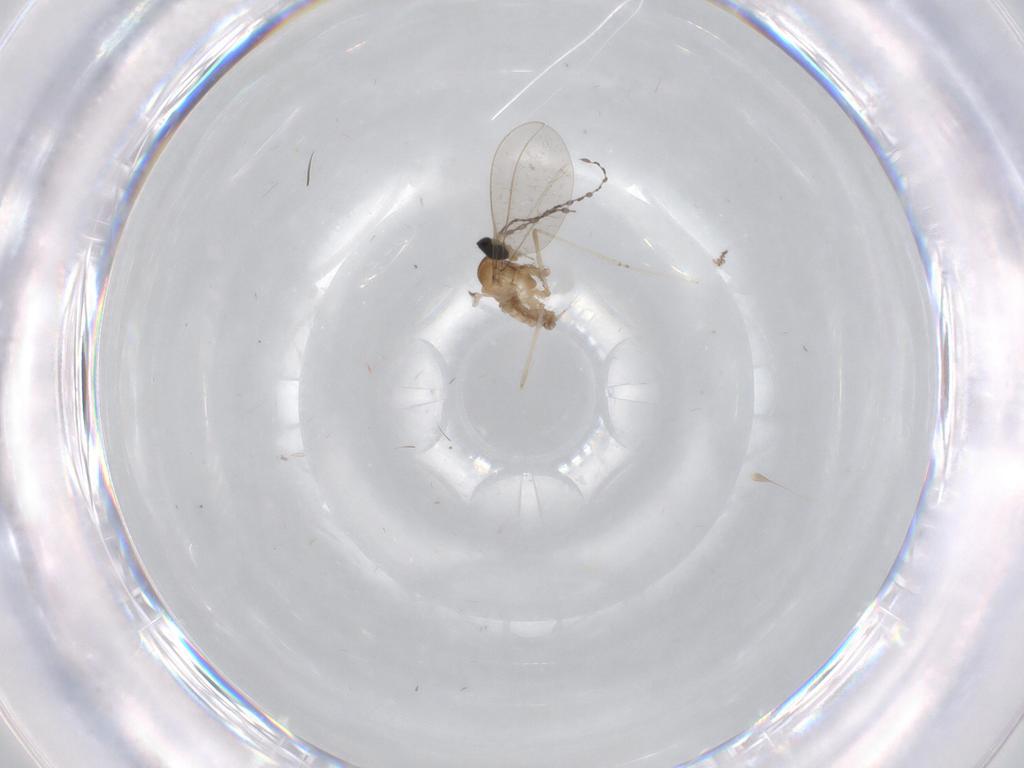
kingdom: Animalia
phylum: Arthropoda
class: Insecta
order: Diptera
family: Cecidomyiidae
